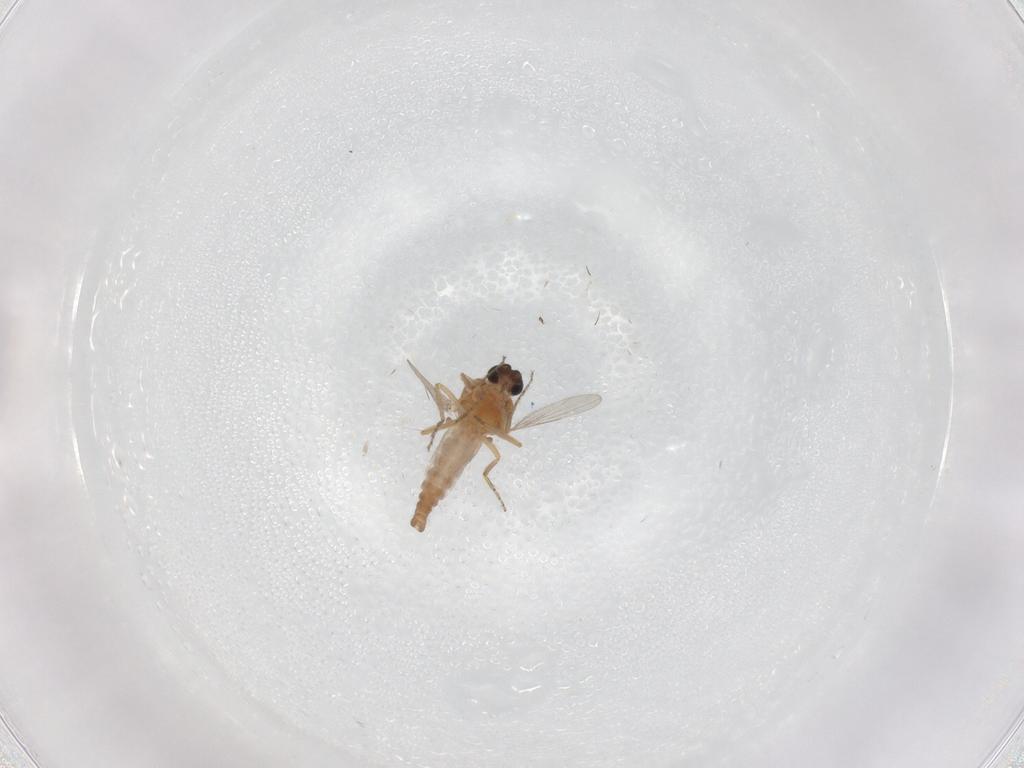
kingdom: Animalia
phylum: Arthropoda
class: Insecta
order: Diptera
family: Ceratopogonidae
